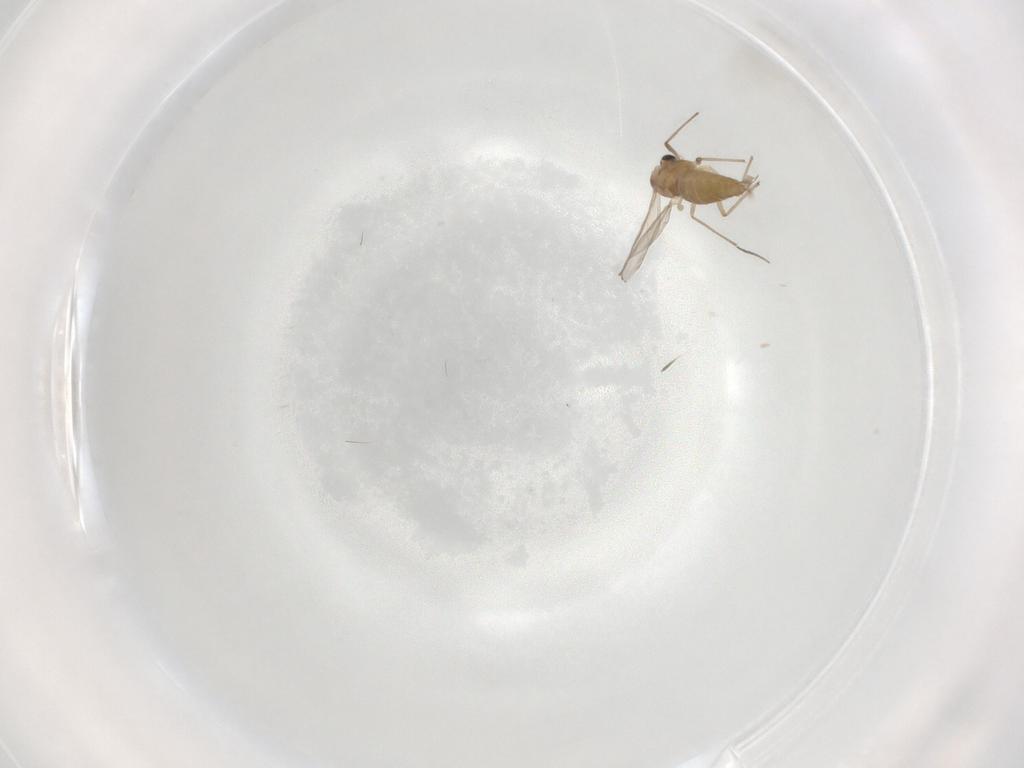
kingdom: Animalia
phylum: Arthropoda
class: Insecta
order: Diptera
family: Chironomidae
